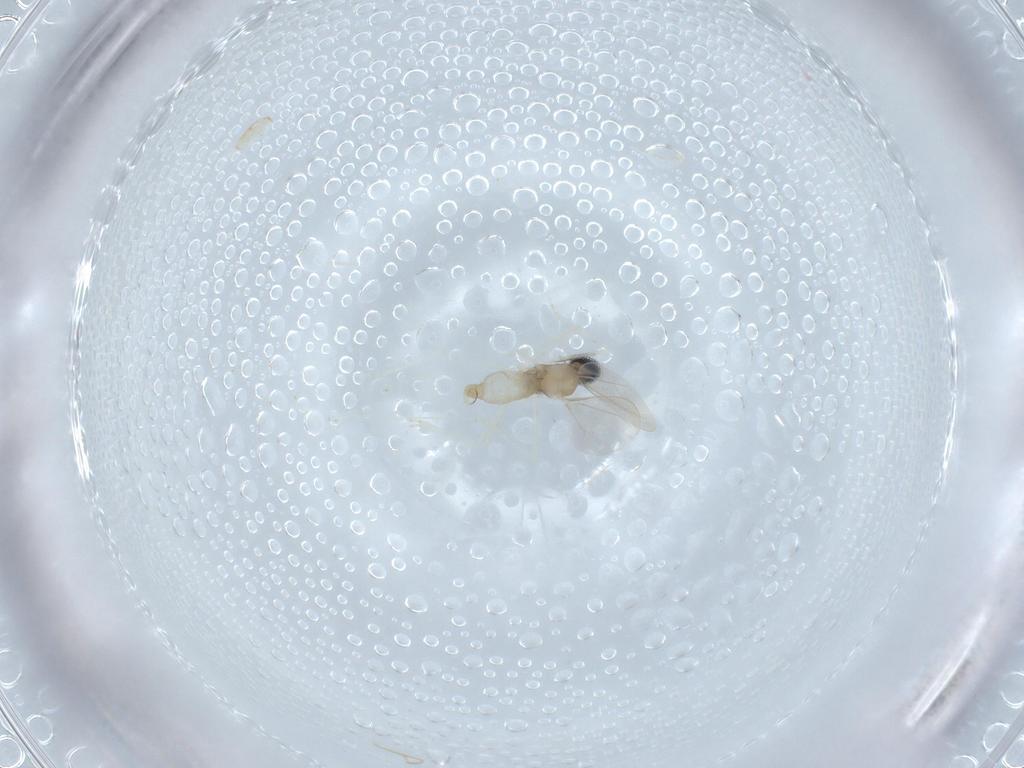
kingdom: Animalia
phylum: Arthropoda
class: Insecta
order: Diptera
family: Cecidomyiidae
